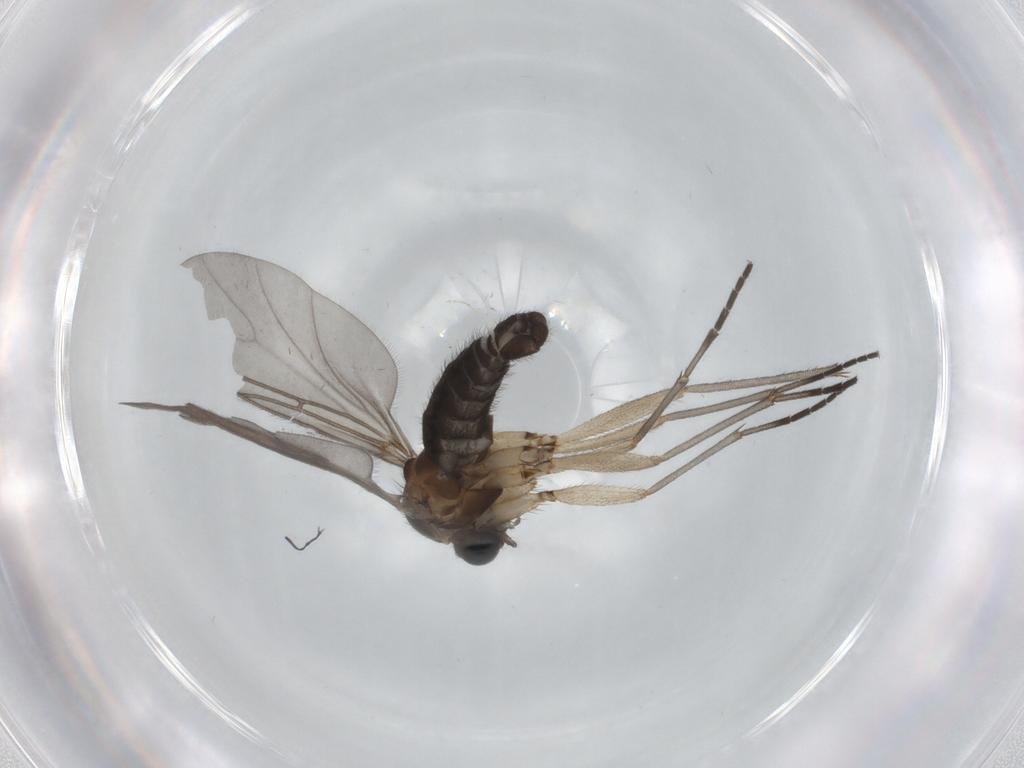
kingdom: Animalia
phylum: Arthropoda
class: Insecta
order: Diptera
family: Sciaridae
